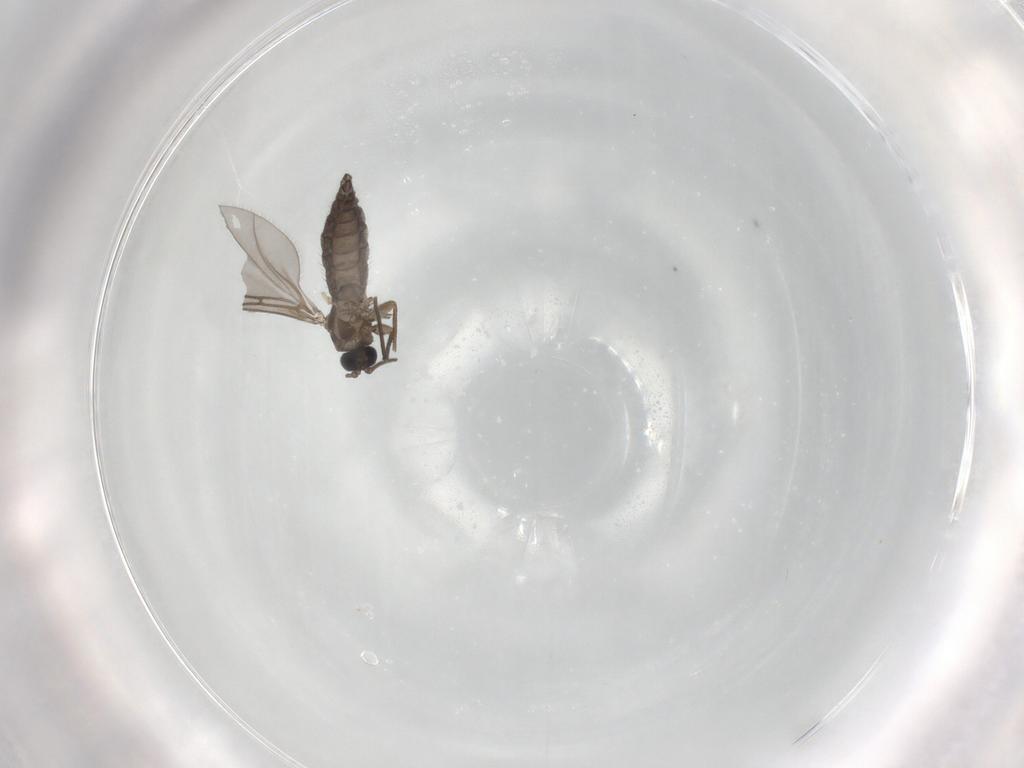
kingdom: Animalia
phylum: Arthropoda
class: Insecta
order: Diptera
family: Sciaridae
